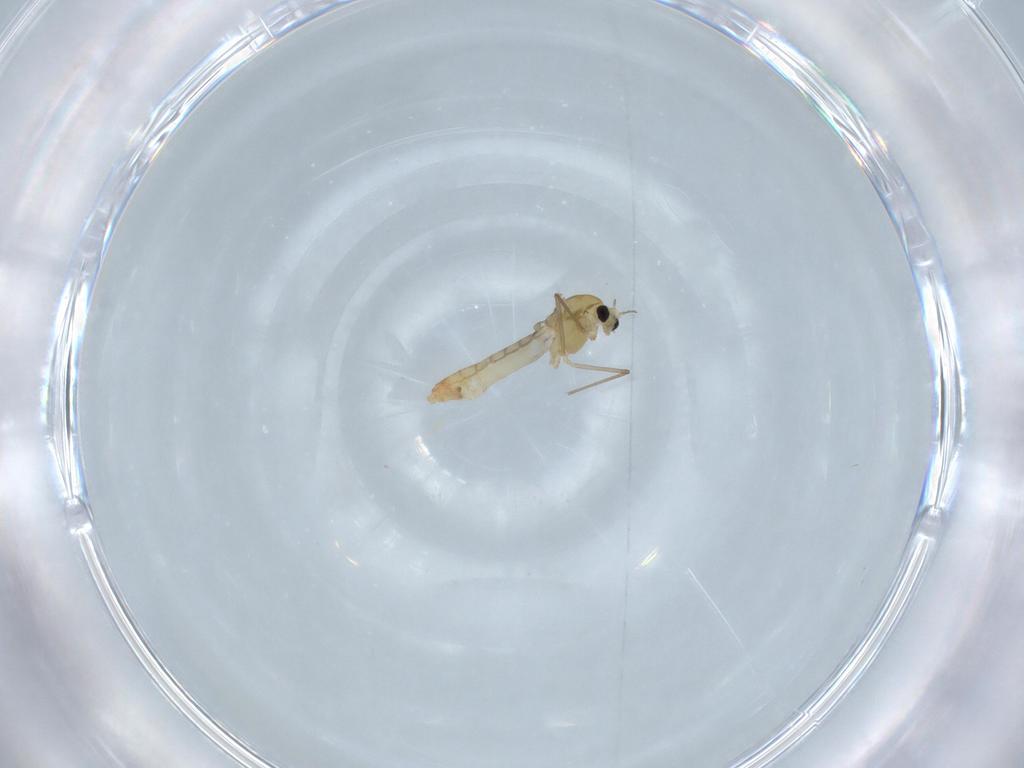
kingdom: Animalia
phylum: Arthropoda
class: Insecta
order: Diptera
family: Chironomidae
